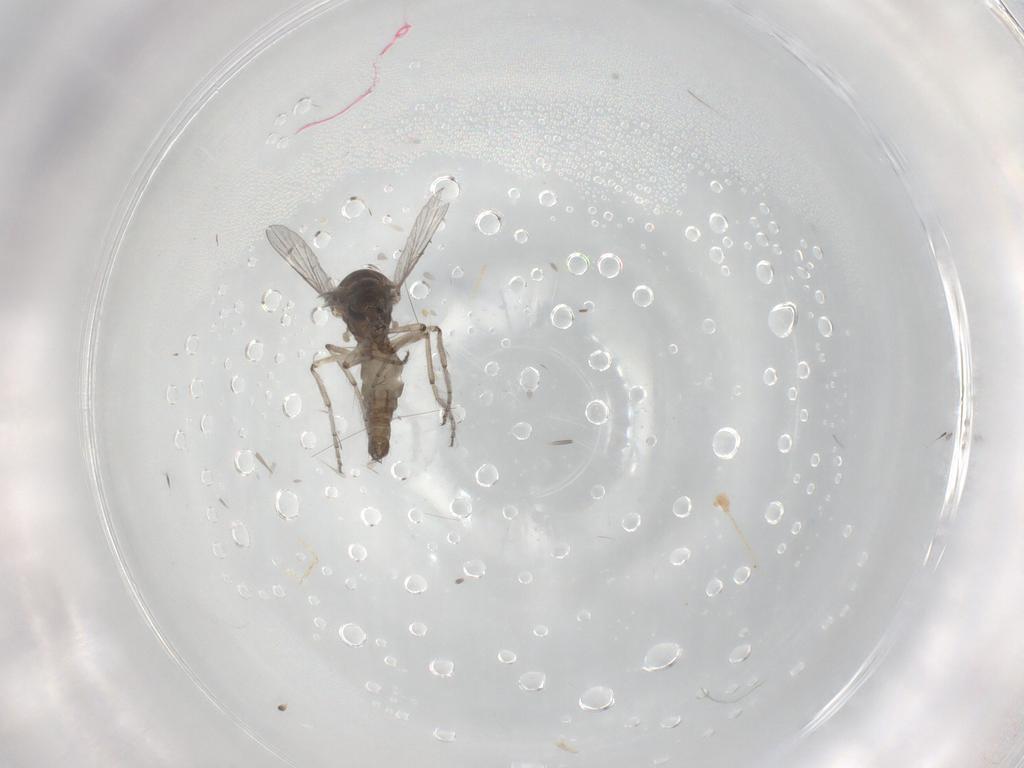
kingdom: Animalia
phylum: Arthropoda
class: Insecta
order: Diptera
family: Ceratopogonidae
